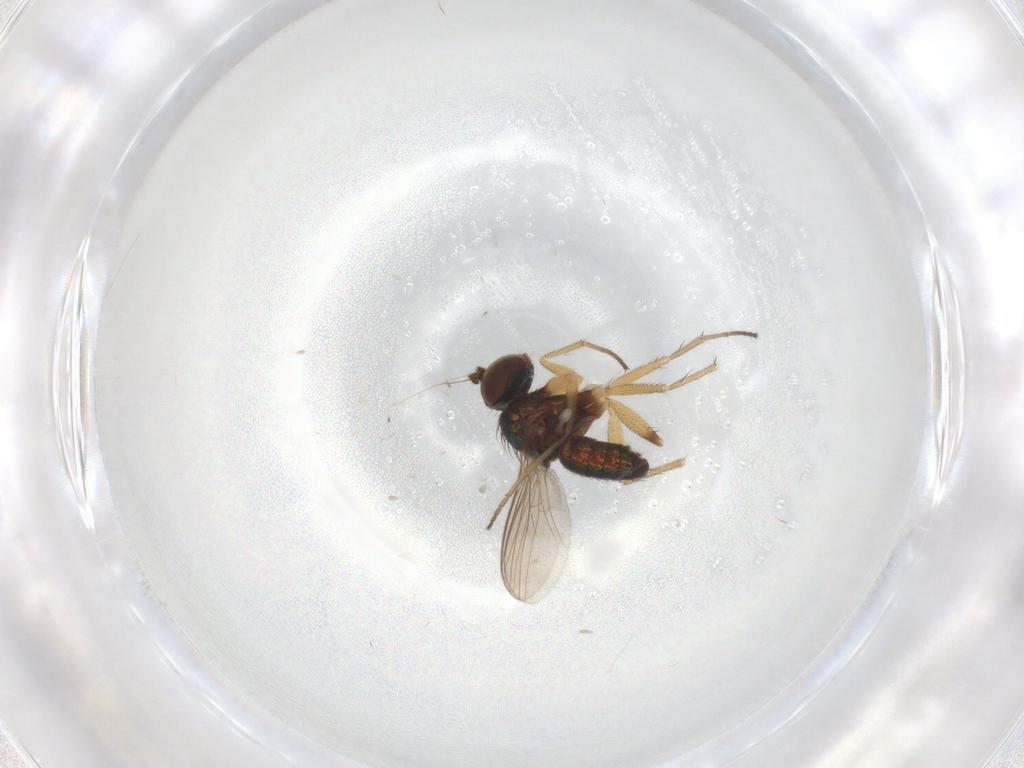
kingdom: Animalia
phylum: Arthropoda
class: Insecta
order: Diptera
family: Dolichopodidae
